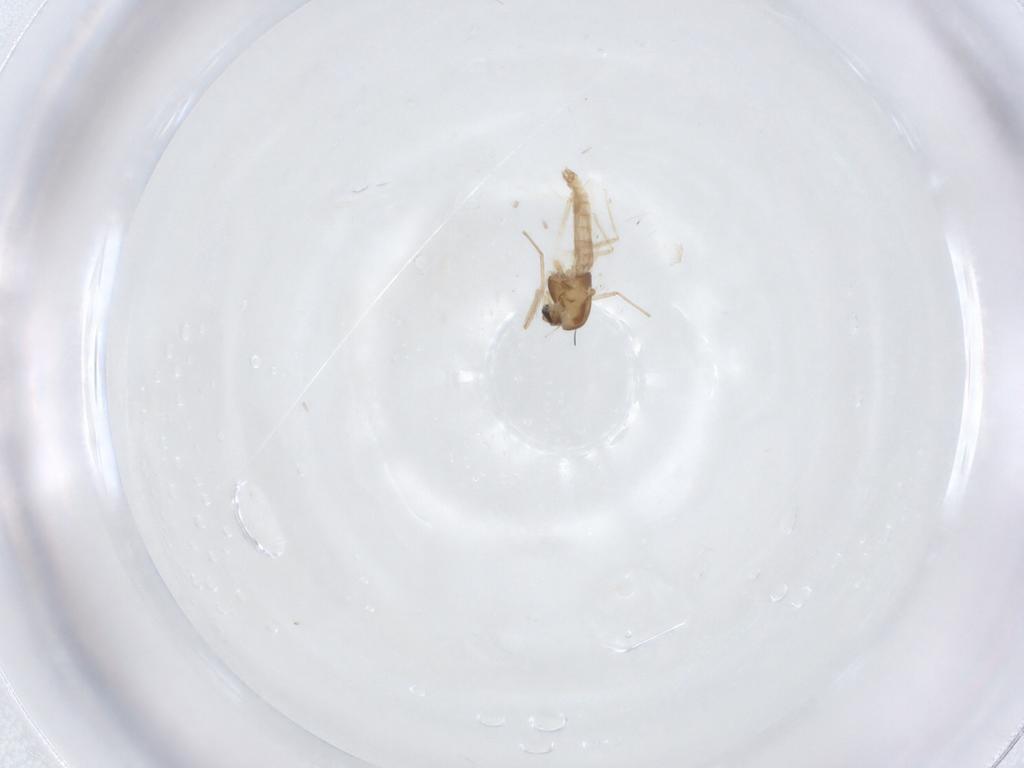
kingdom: Animalia
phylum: Arthropoda
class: Insecta
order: Diptera
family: Chironomidae
